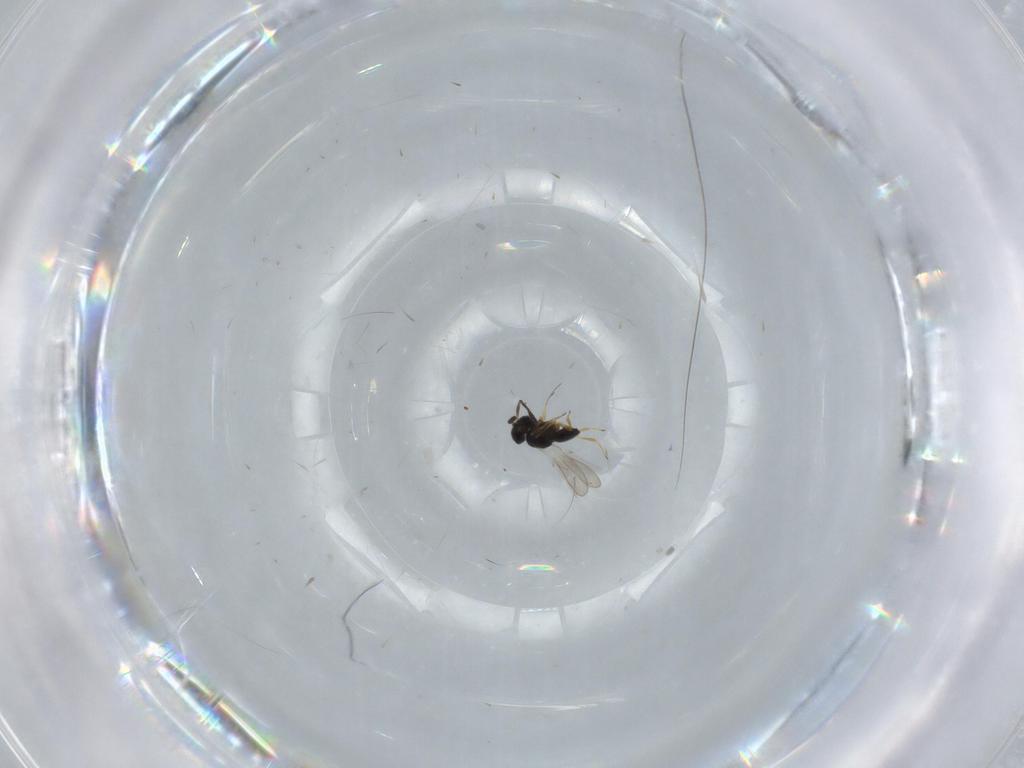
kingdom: Animalia
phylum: Arthropoda
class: Insecta
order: Hymenoptera
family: Scelionidae
